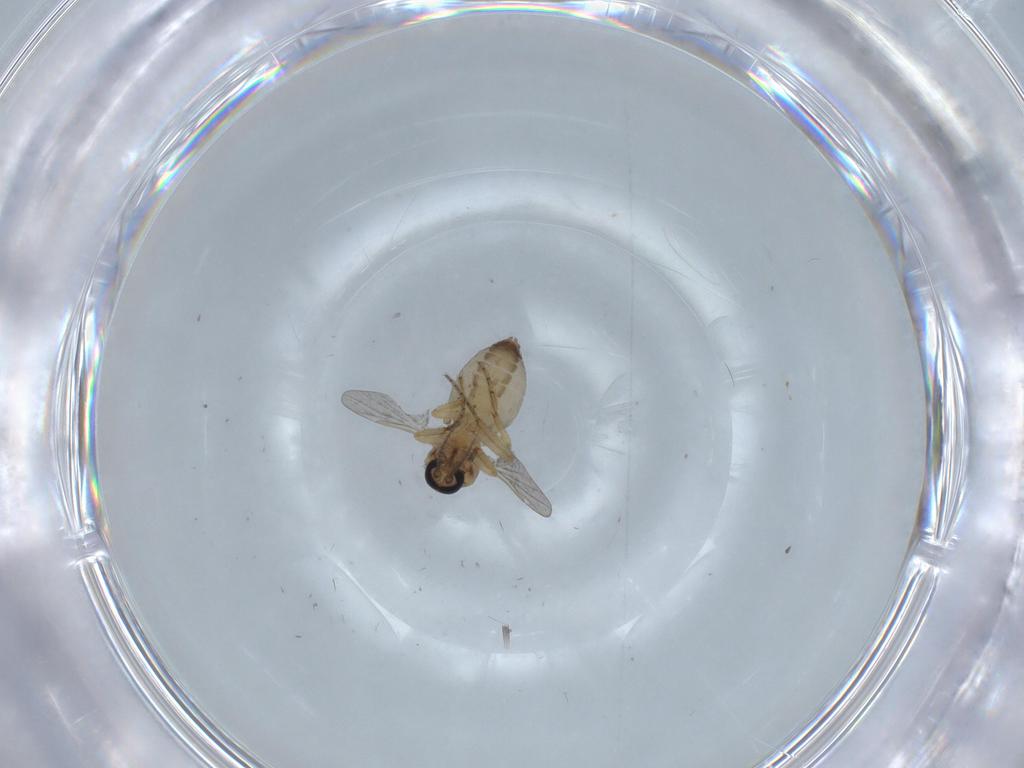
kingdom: Animalia
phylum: Arthropoda
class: Insecta
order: Diptera
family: Ceratopogonidae
